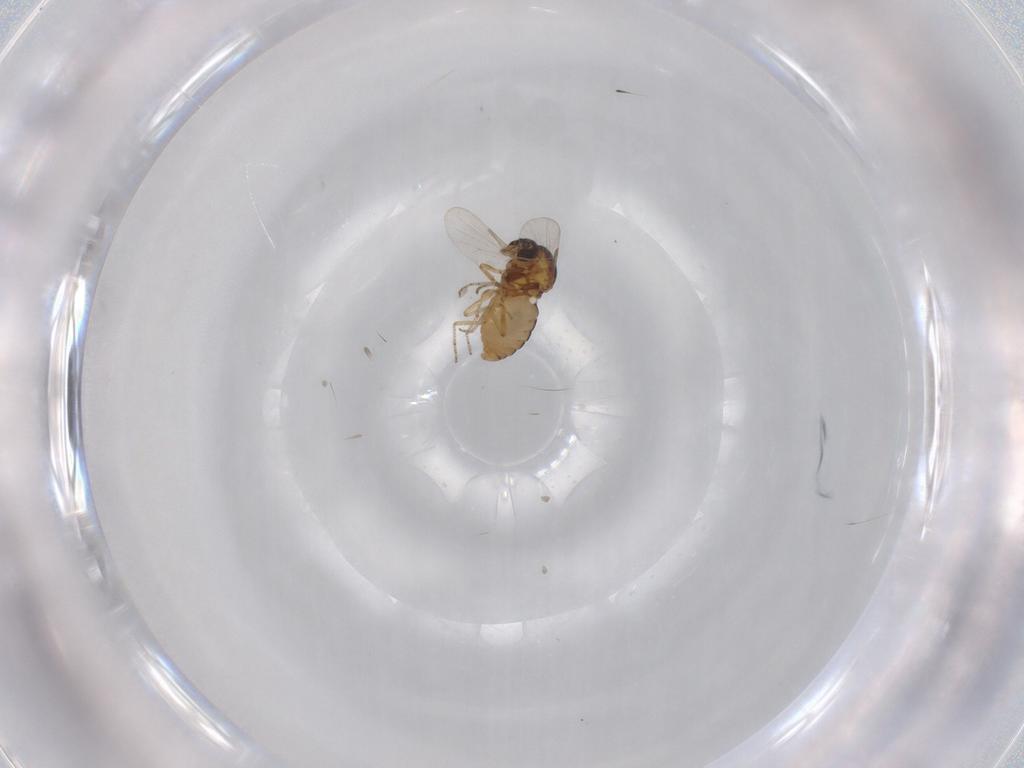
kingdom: Animalia
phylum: Arthropoda
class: Insecta
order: Diptera
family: Ceratopogonidae
